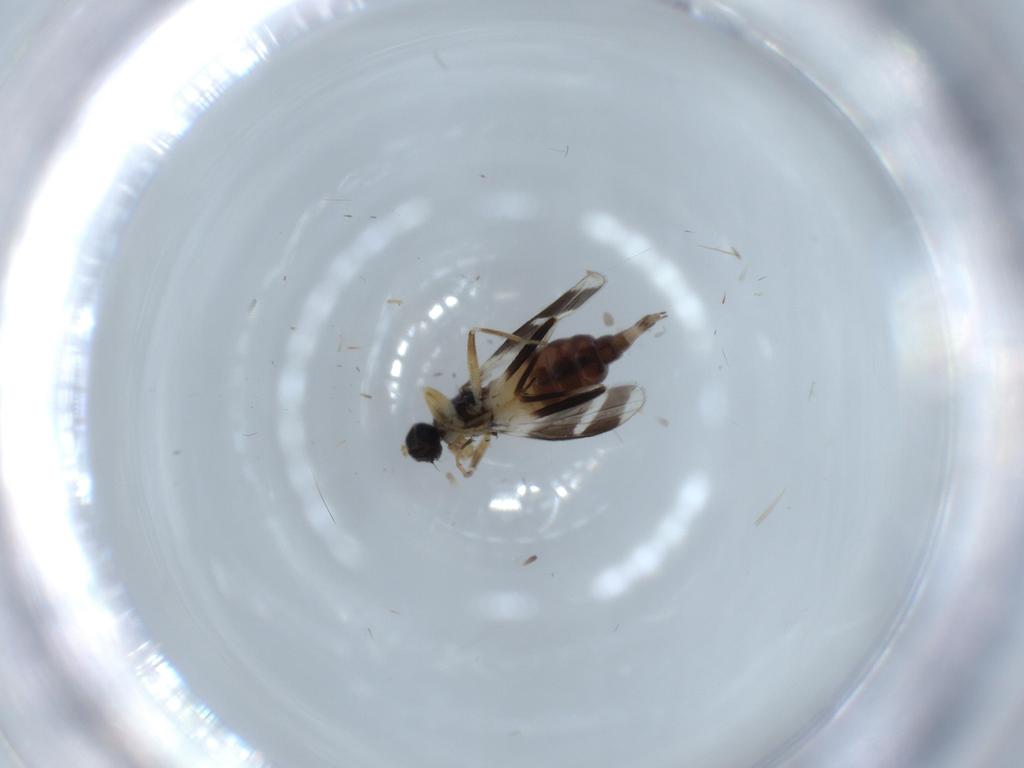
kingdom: Animalia
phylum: Arthropoda
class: Insecta
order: Diptera
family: Hybotidae
